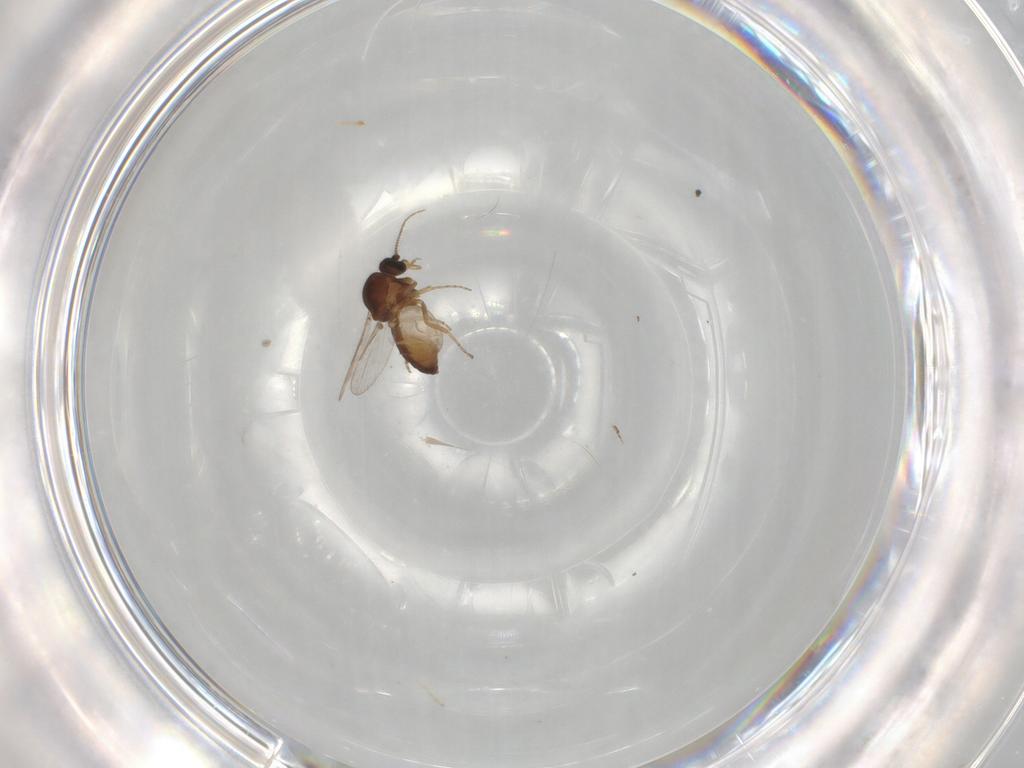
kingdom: Animalia
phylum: Arthropoda
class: Insecta
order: Diptera
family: Ceratopogonidae
